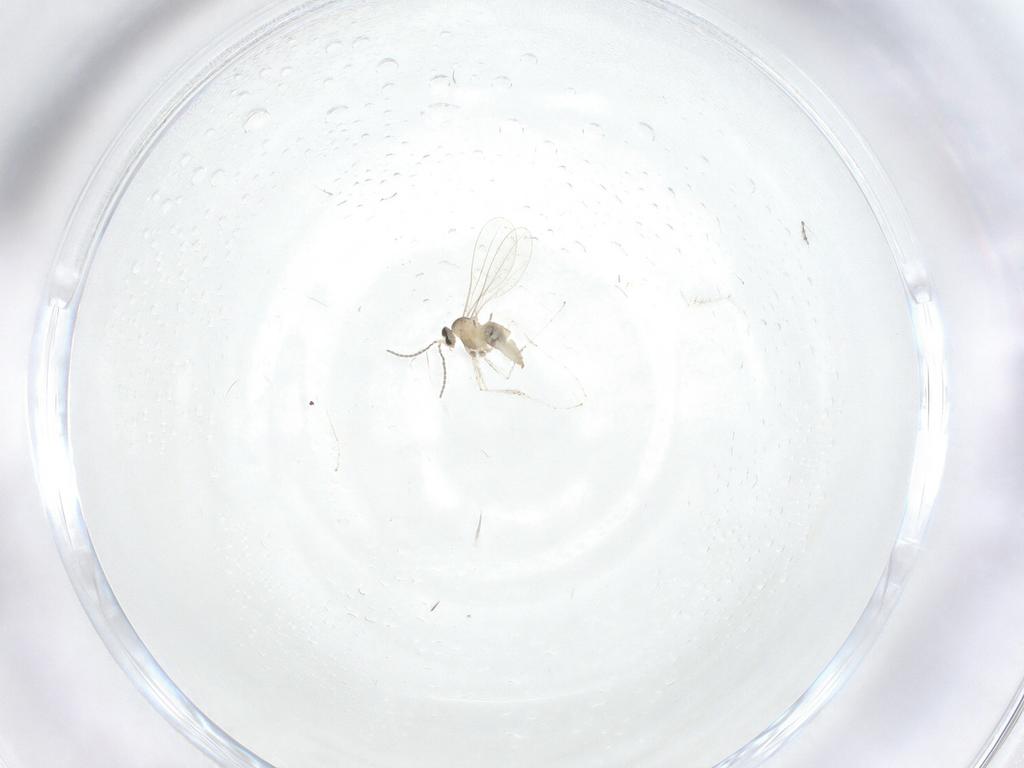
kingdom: Animalia
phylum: Arthropoda
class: Insecta
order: Diptera
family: Cecidomyiidae
